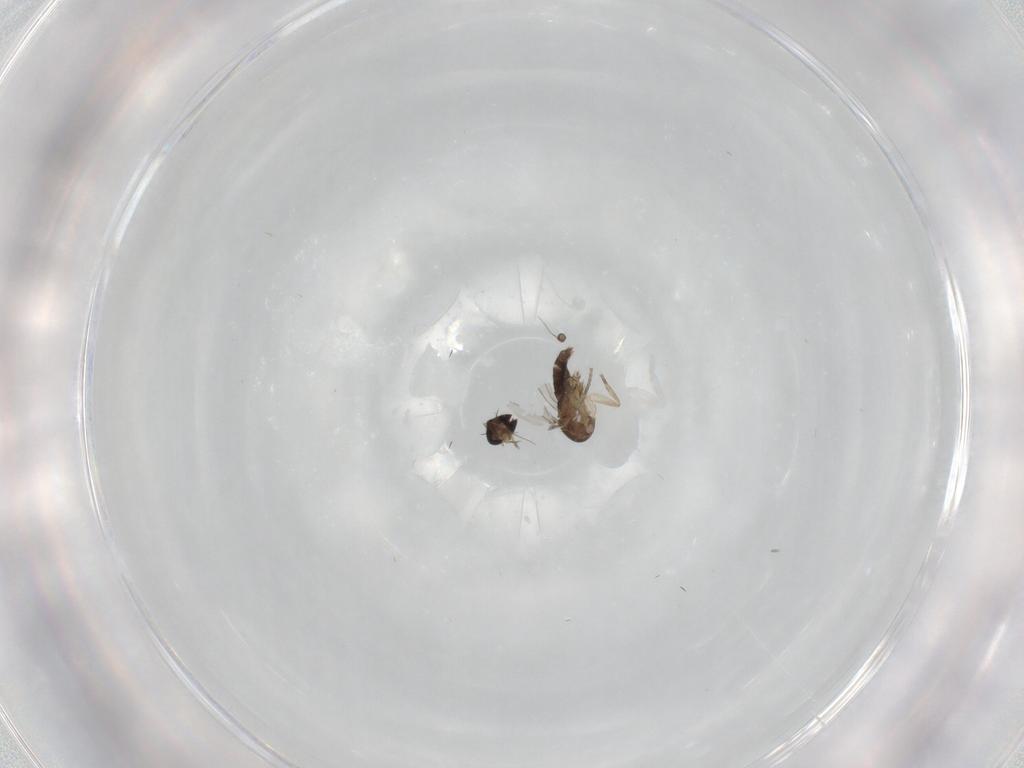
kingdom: Animalia
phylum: Arthropoda
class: Insecta
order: Diptera
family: Phoridae
